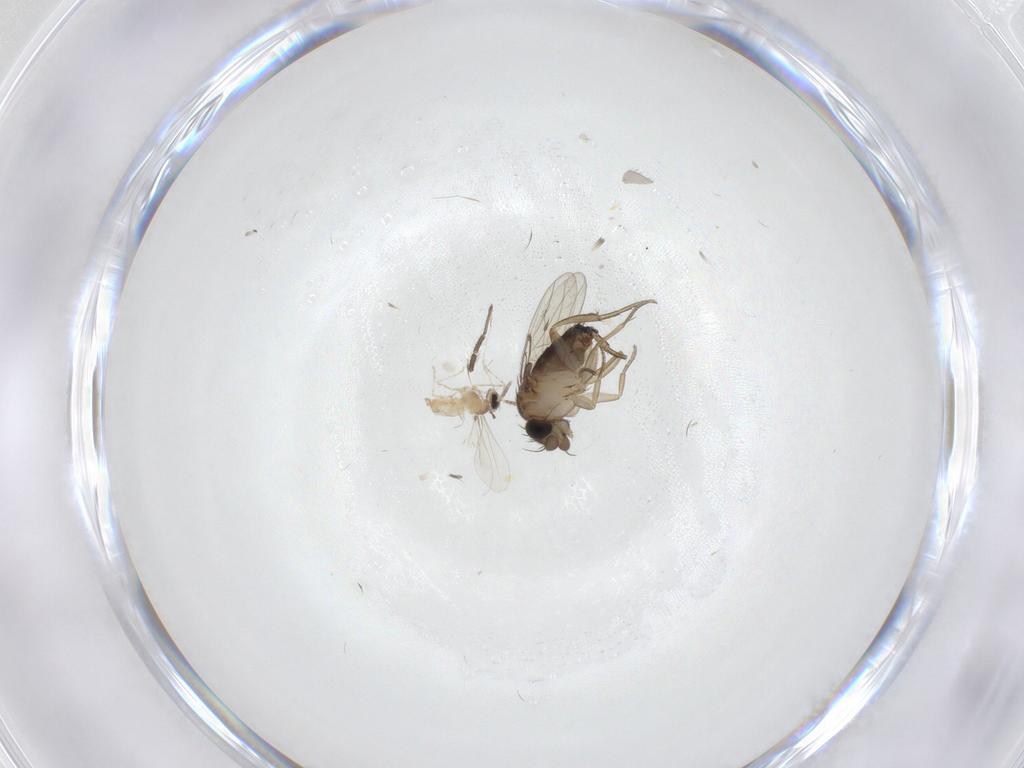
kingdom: Animalia
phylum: Arthropoda
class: Insecta
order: Diptera
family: Chironomidae
